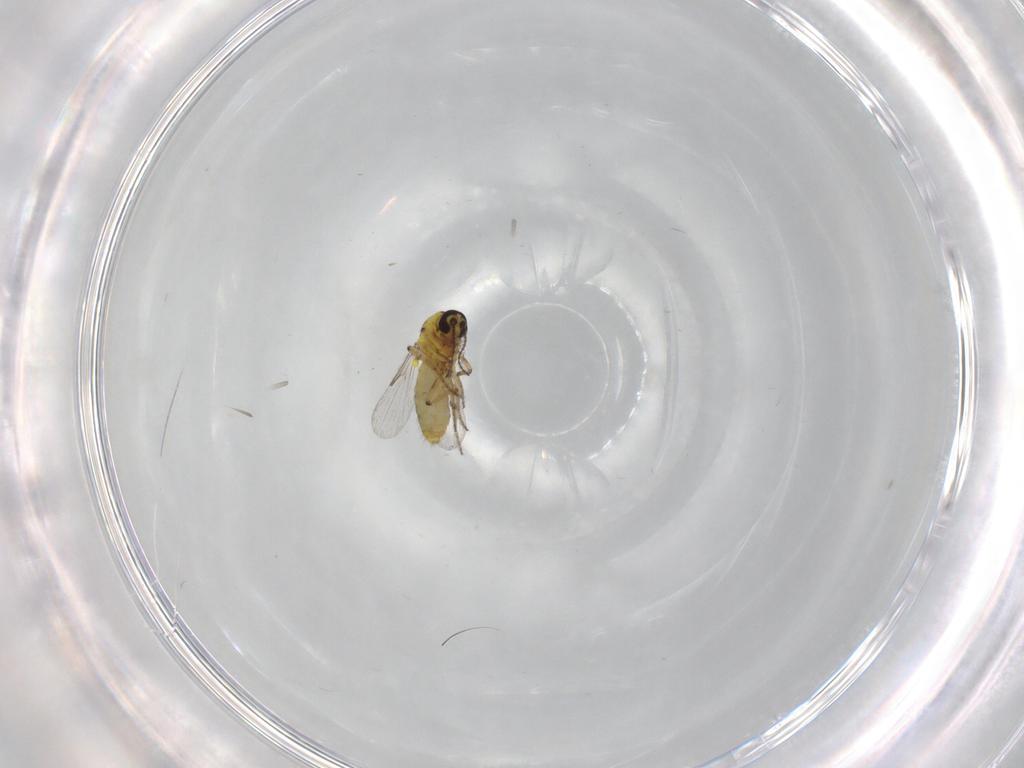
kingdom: Animalia
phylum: Arthropoda
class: Insecta
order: Diptera
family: Ceratopogonidae
